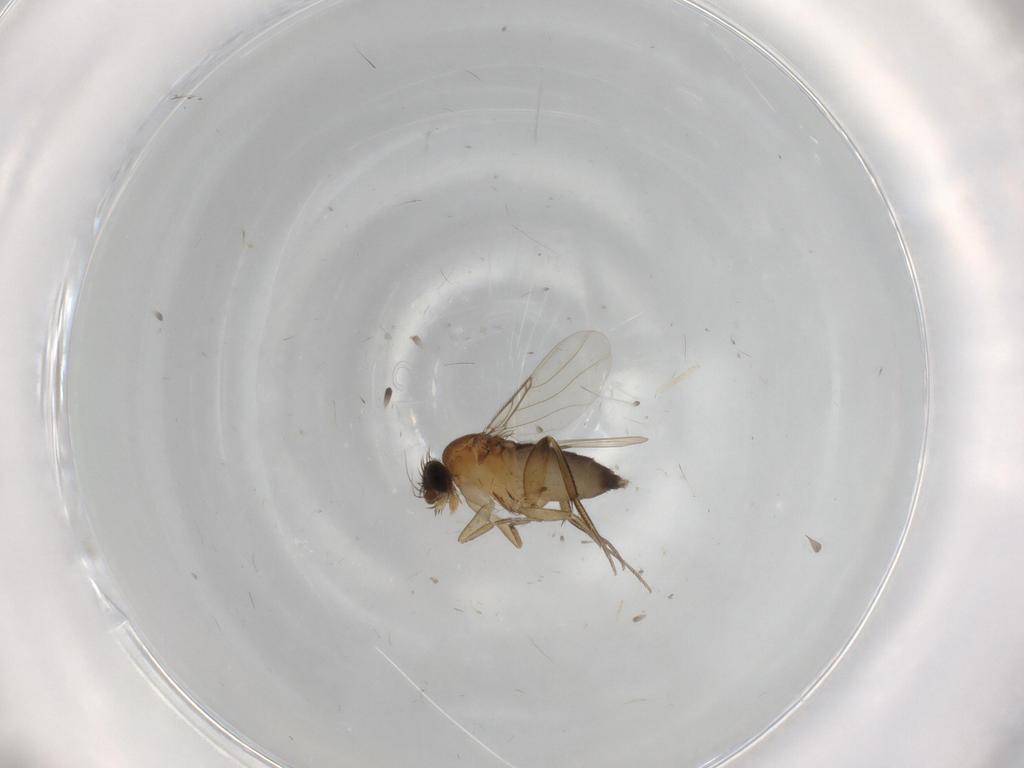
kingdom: Animalia
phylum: Arthropoda
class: Insecta
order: Diptera
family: Phoridae
